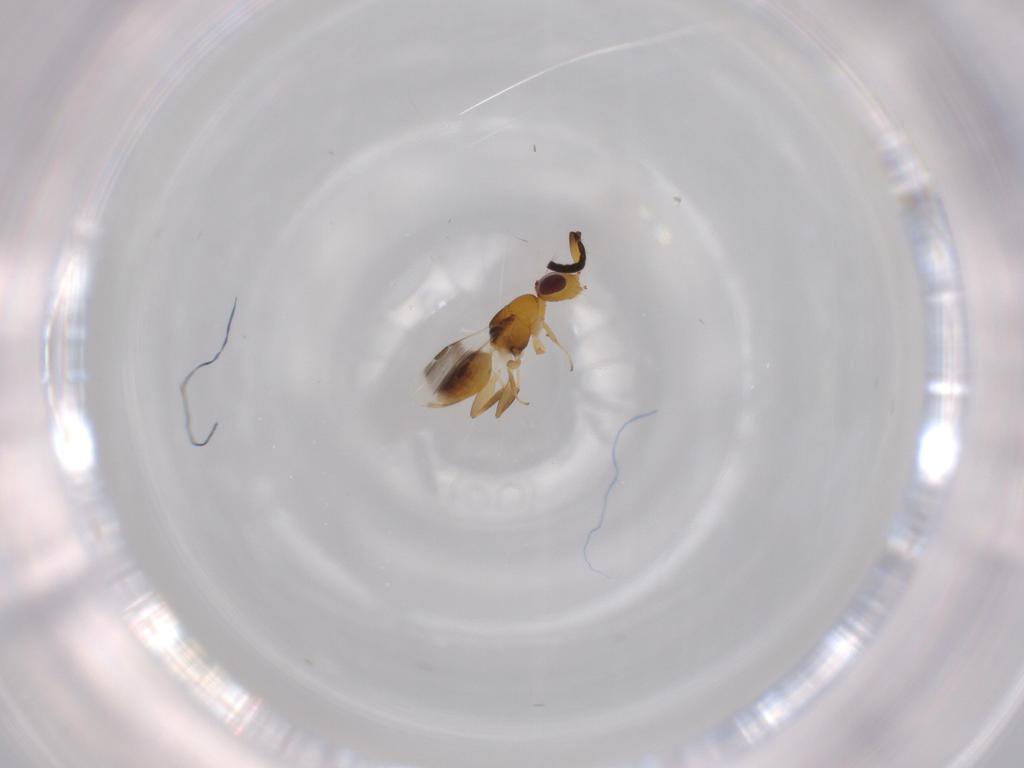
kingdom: Animalia
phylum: Arthropoda
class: Insecta
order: Hymenoptera
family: Megaspilidae
